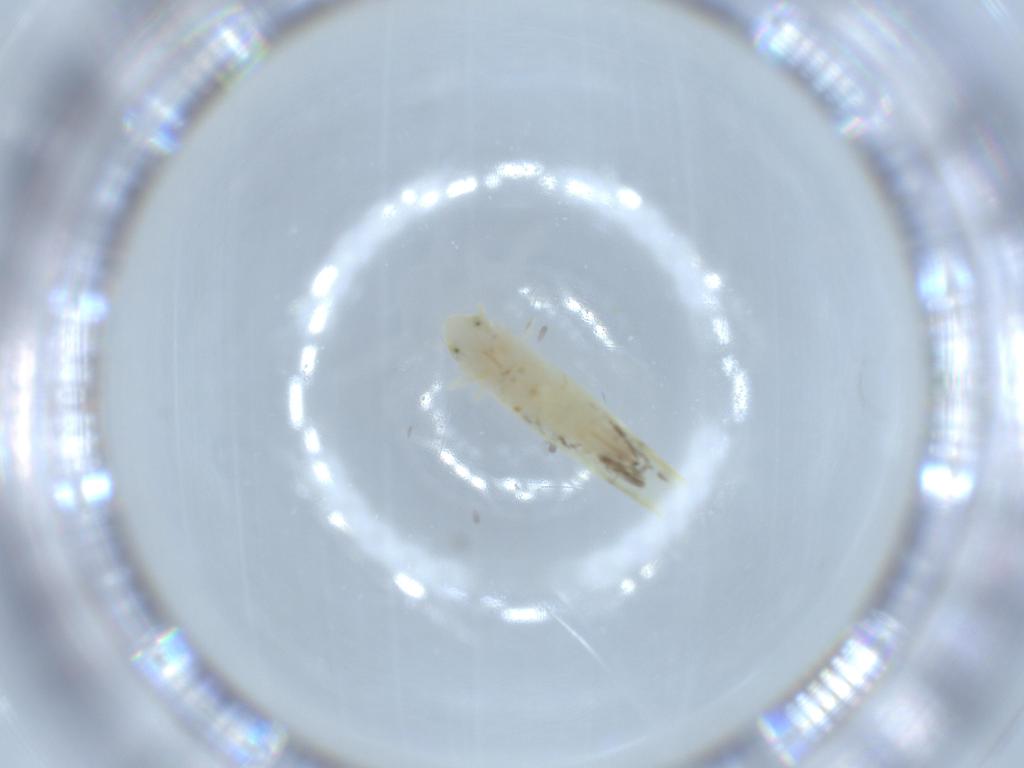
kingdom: Animalia
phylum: Arthropoda
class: Insecta
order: Hemiptera
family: Cicadellidae
